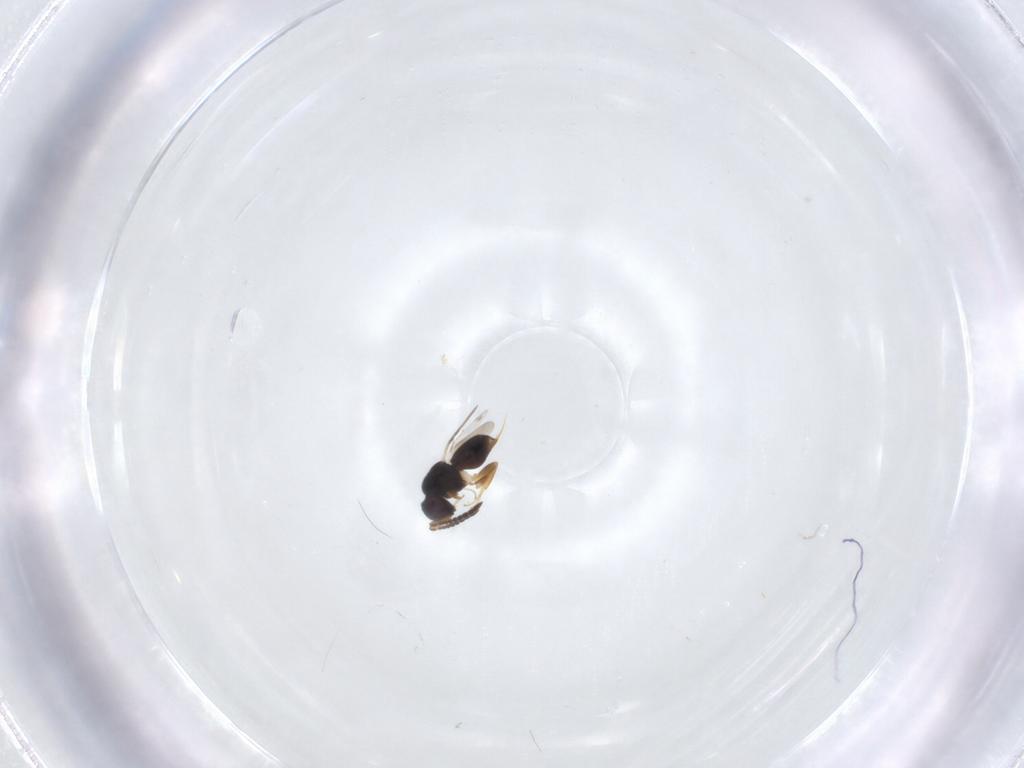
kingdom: Animalia
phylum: Arthropoda
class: Insecta
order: Hymenoptera
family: Formicidae
